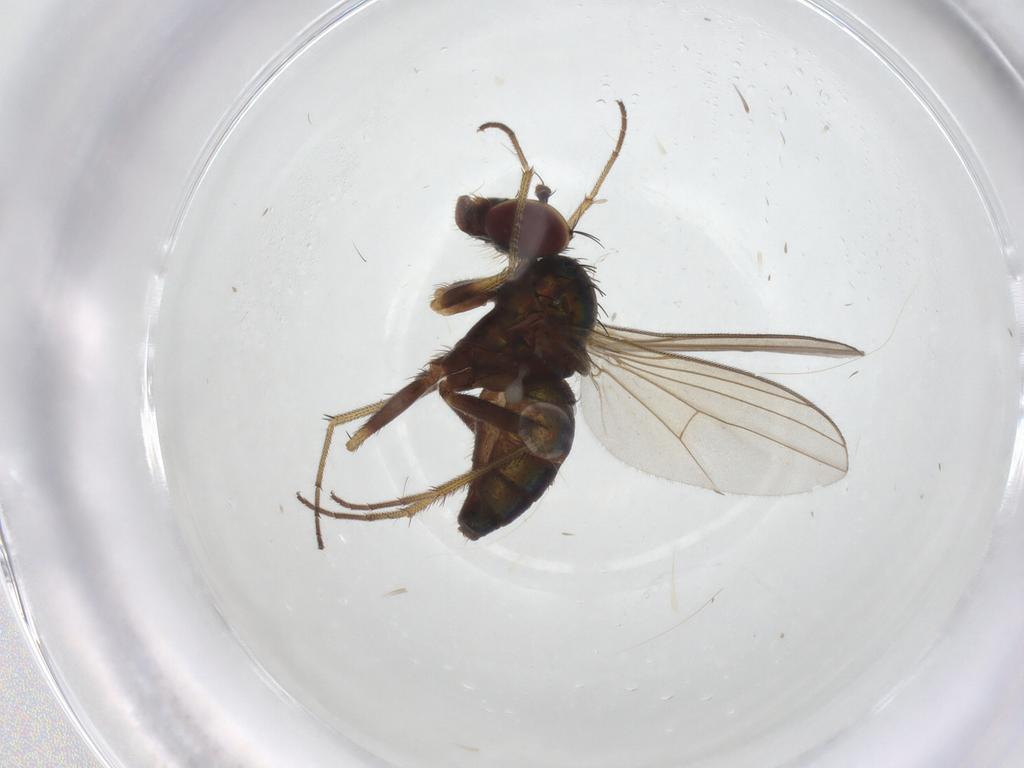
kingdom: Animalia
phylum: Arthropoda
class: Insecta
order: Diptera
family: Dolichopodidae
